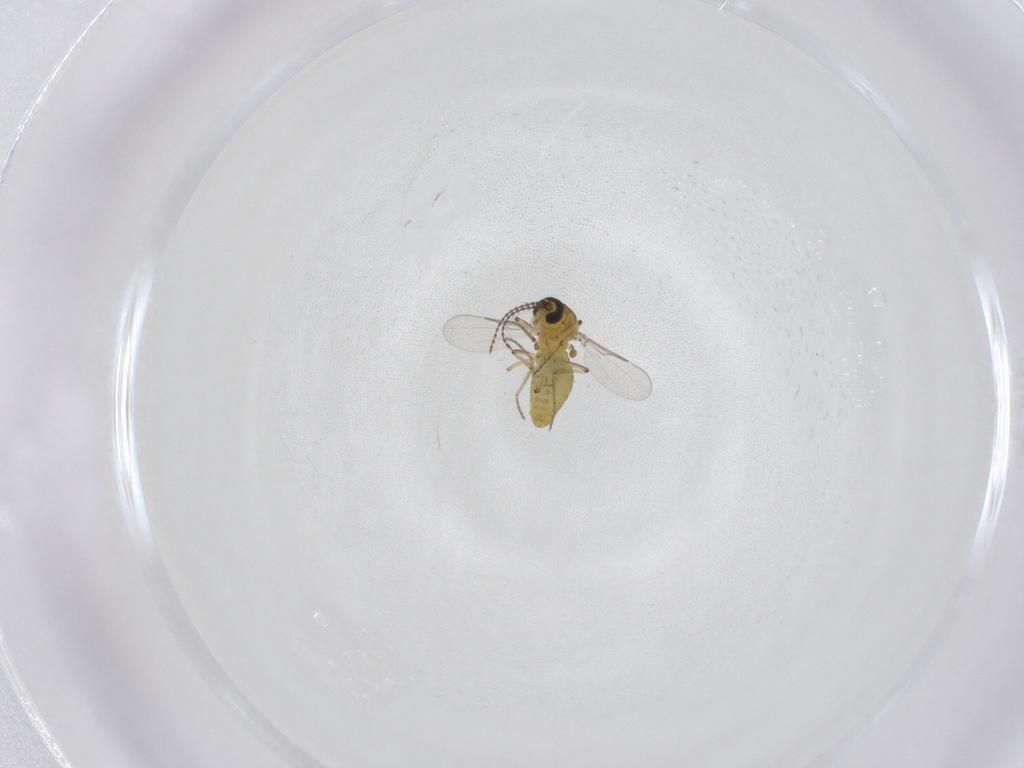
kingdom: Animalia
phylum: Arthropoda
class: Insecta
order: Diptera
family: Ceratopogonidae
